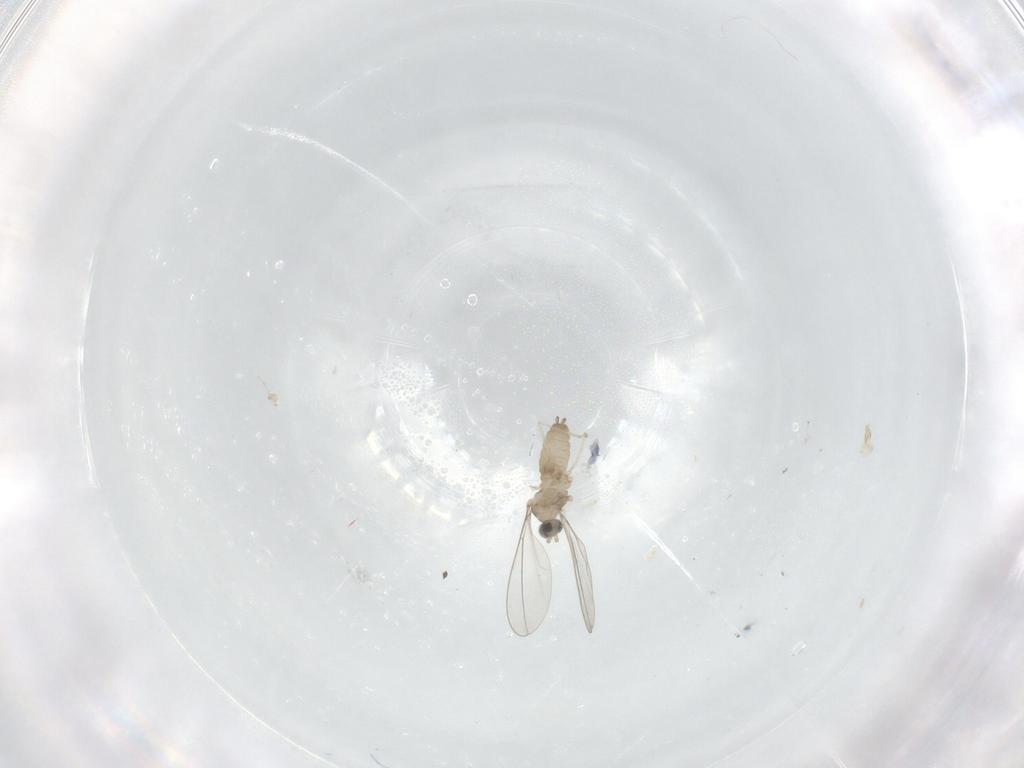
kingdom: Animalia
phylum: Arthropoda
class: Insecta
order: Diptera
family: Cecidomyiidae
